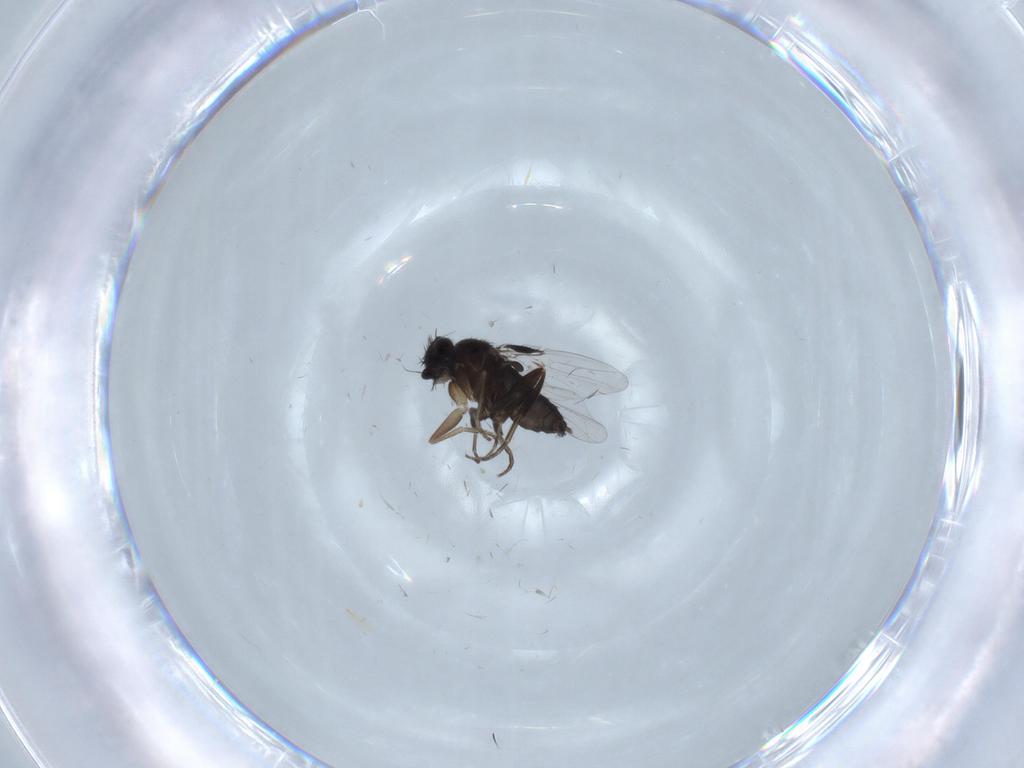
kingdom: Animalia
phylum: Arthropoda
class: Insecta
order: Diptera
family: Phoridae
